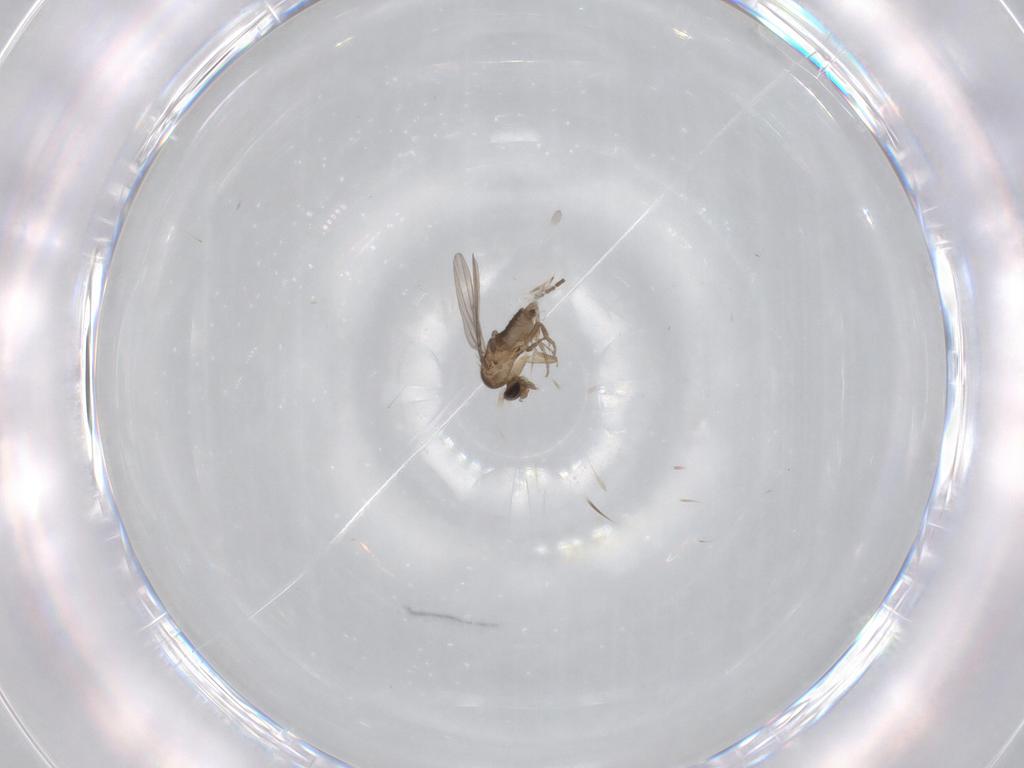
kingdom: Animalia
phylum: Arthropoda
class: Insecta
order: Diptera
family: Phoridae
